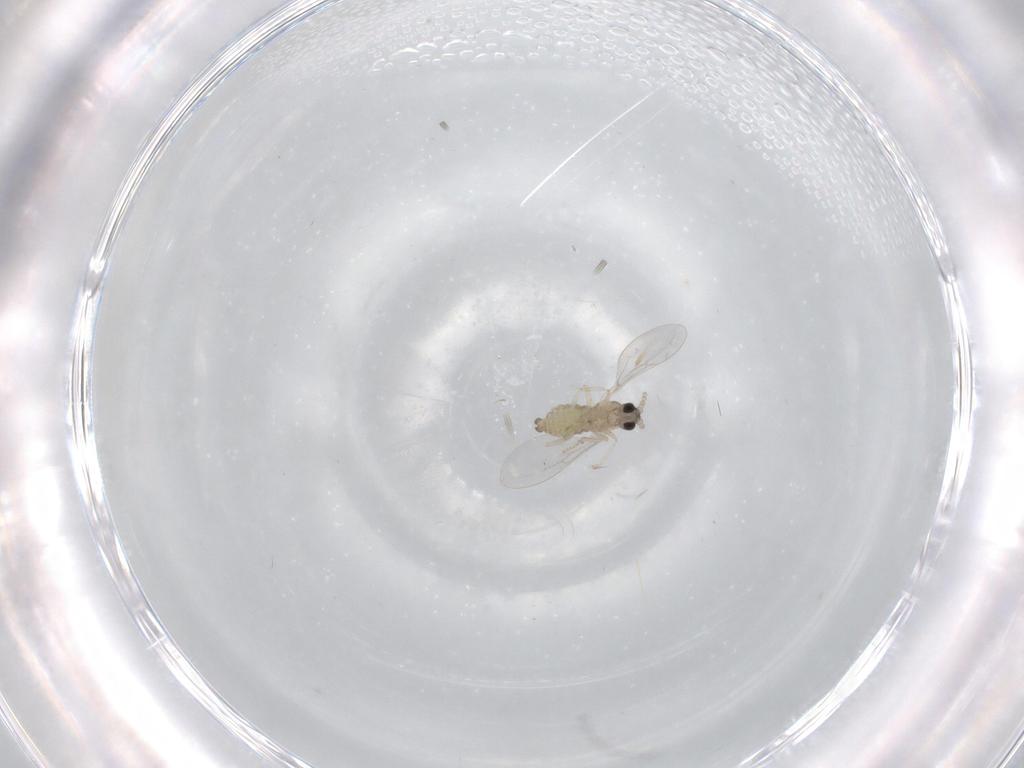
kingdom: Animalia
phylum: Arthropoda
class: Insecta
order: Diptera
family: Cecidomyiidae
